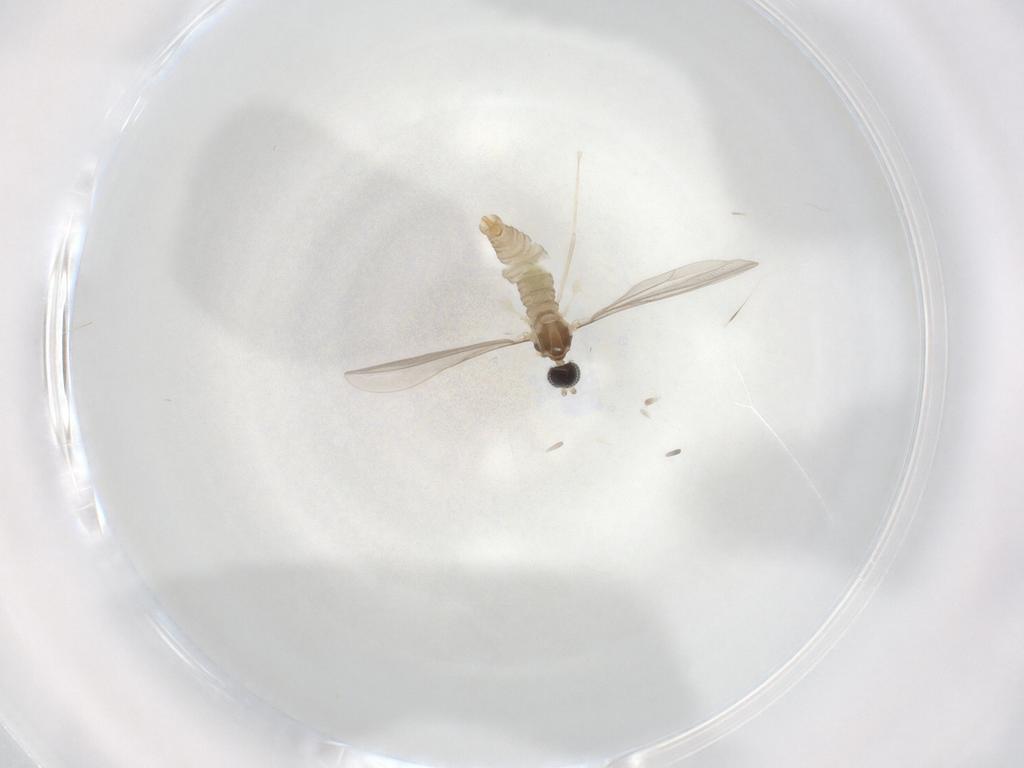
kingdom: Animalia
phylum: Arthropoda
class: Insecta
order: Diptera
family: Cecidomyiidae
